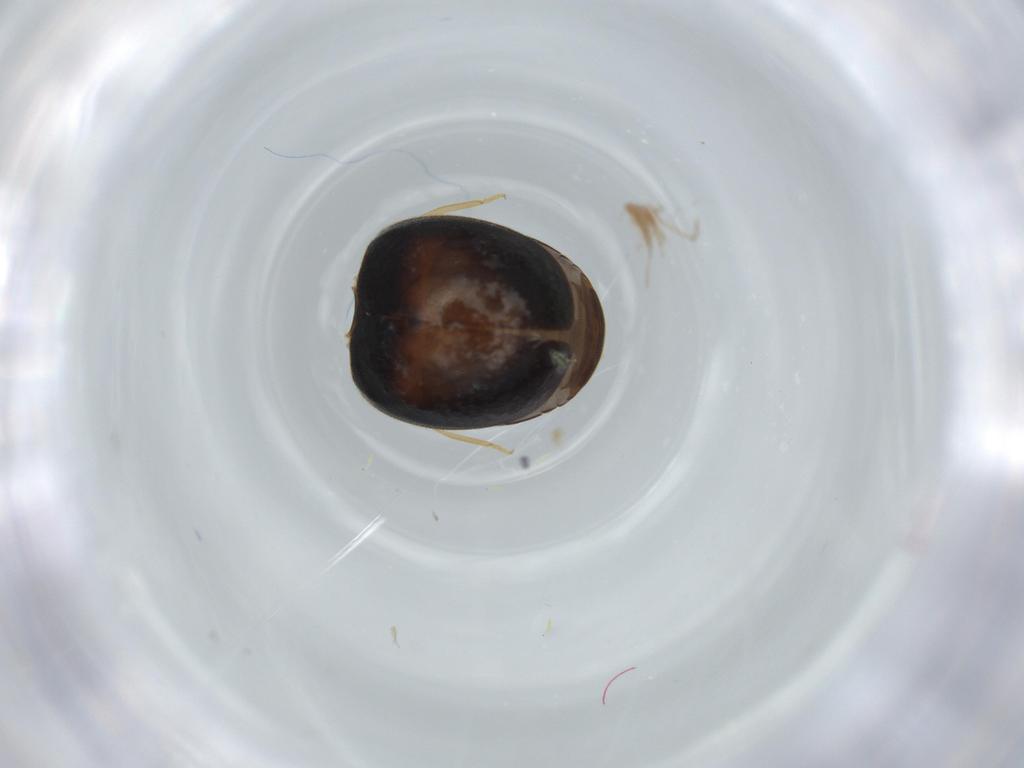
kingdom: Animalia
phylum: Arthropoda
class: Insecta
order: Coleoptera
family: Coccinellidae
